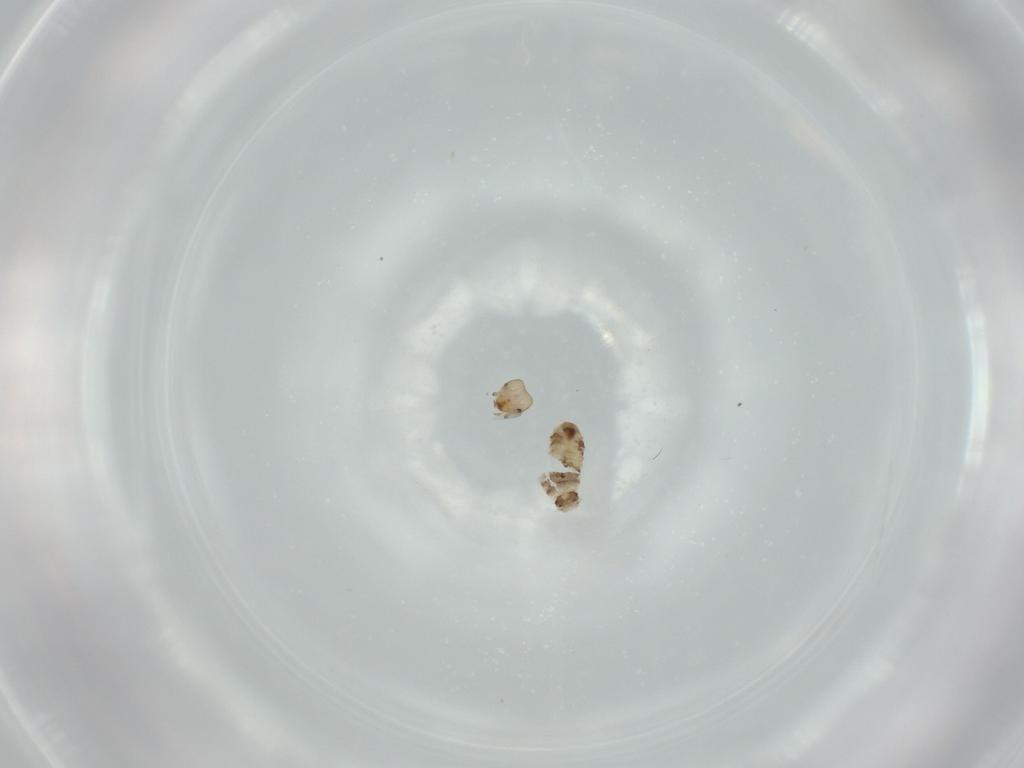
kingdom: Animalia
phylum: Arthropoda
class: Insecta
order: Psocodea
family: Liposcelididae
